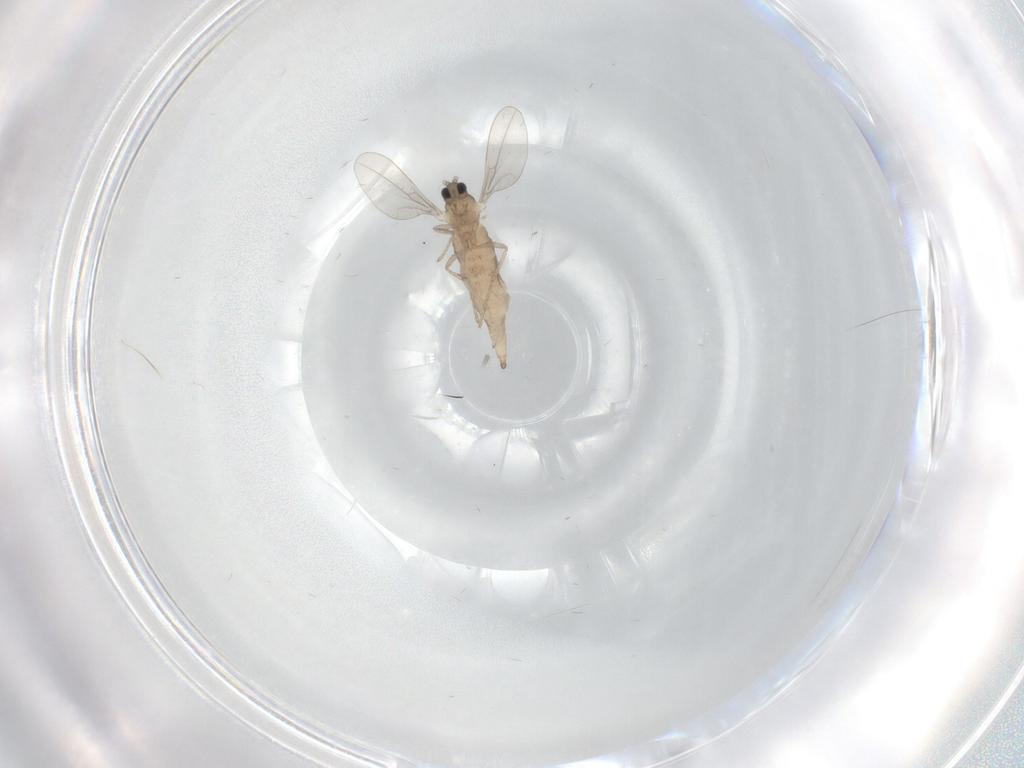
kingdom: Animalia
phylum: Arthropoda
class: Insecta
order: Diptera
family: Cecidomyiidae
